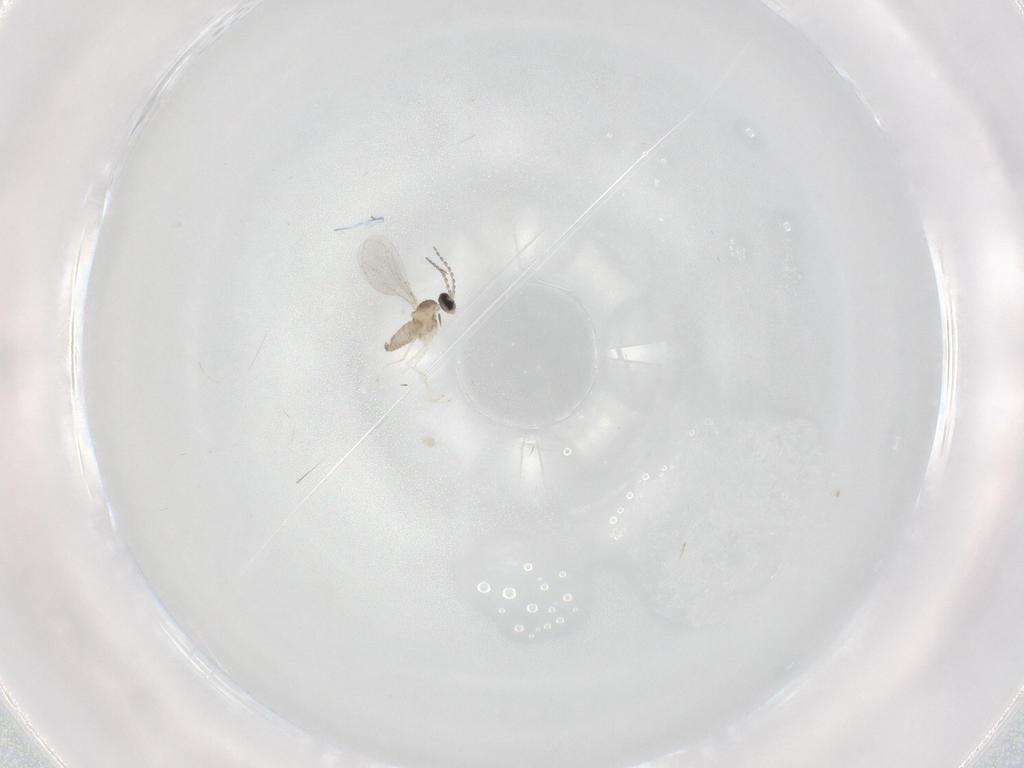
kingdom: Animalia
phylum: Arthropoda
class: Insecta
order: Diptera
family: Cecidomyiidae
